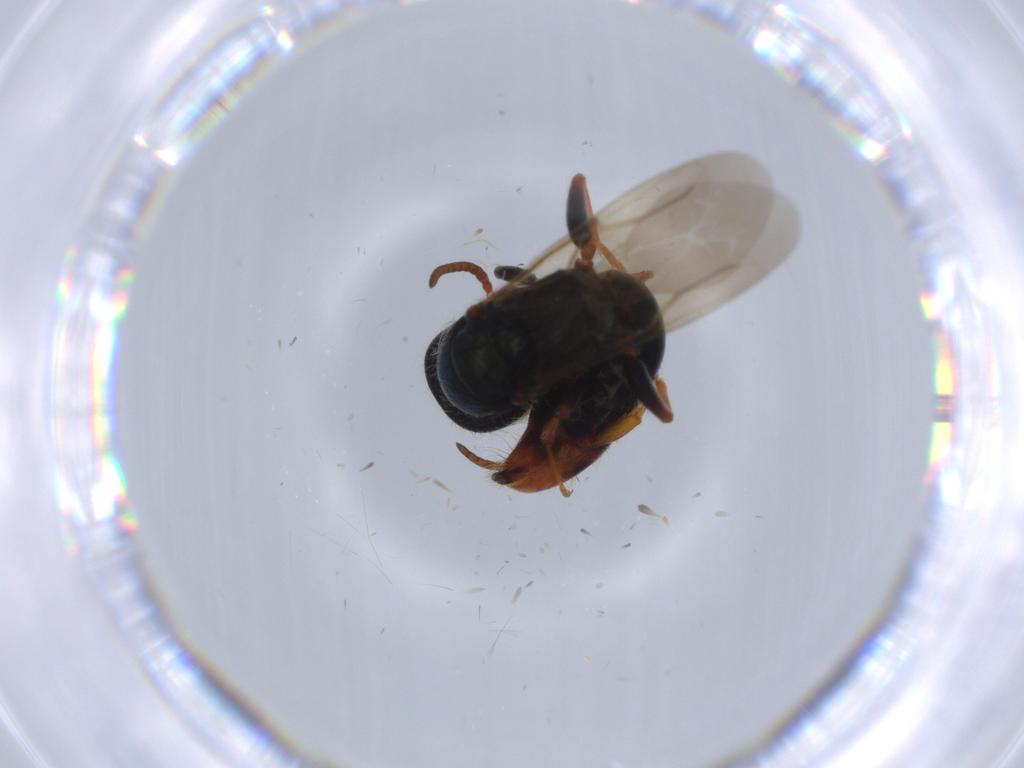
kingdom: Animalia
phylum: Arthropoda
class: Insecta
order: Hymenoptera
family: Bethylidae
